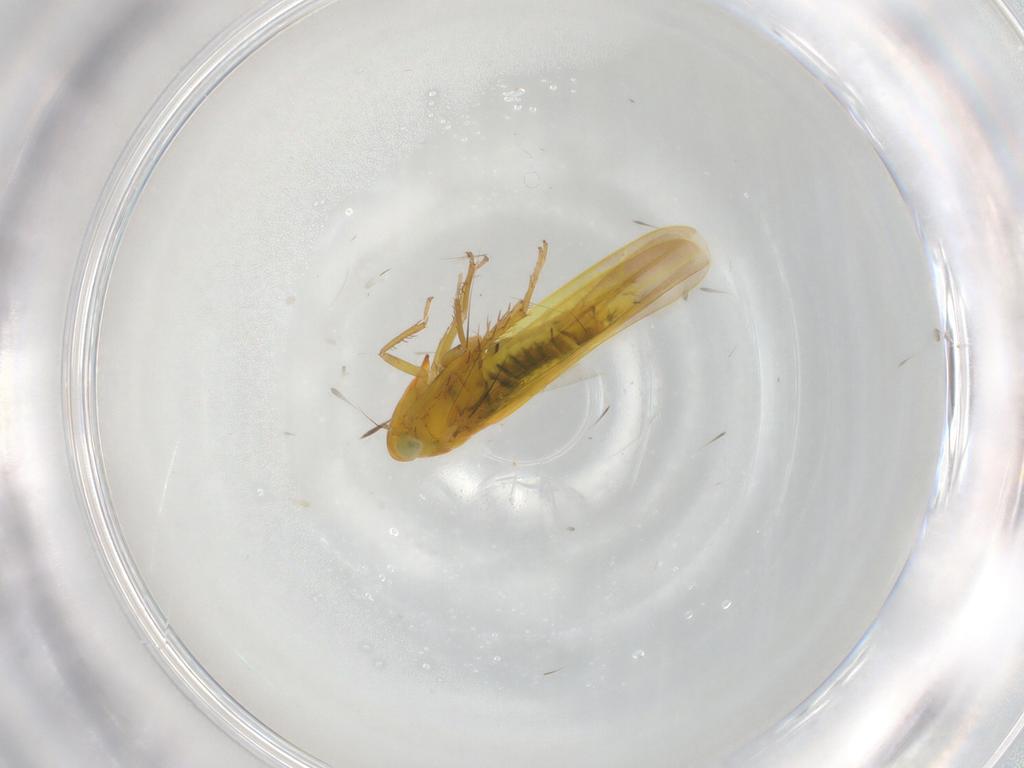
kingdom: Animalia
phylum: Arthropoda
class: Insecta
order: Hemiptera
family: Cicadellidae
